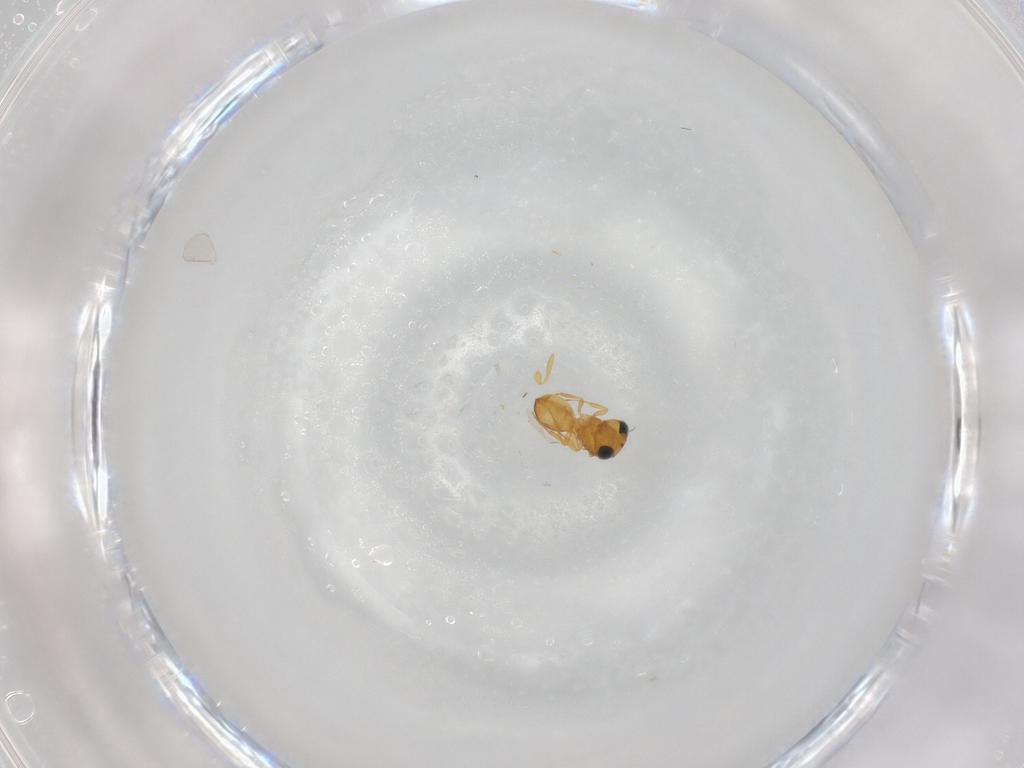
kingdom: Animalia
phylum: Arthropoda
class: Insecta
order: Hymenoptera
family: Scelionidae
